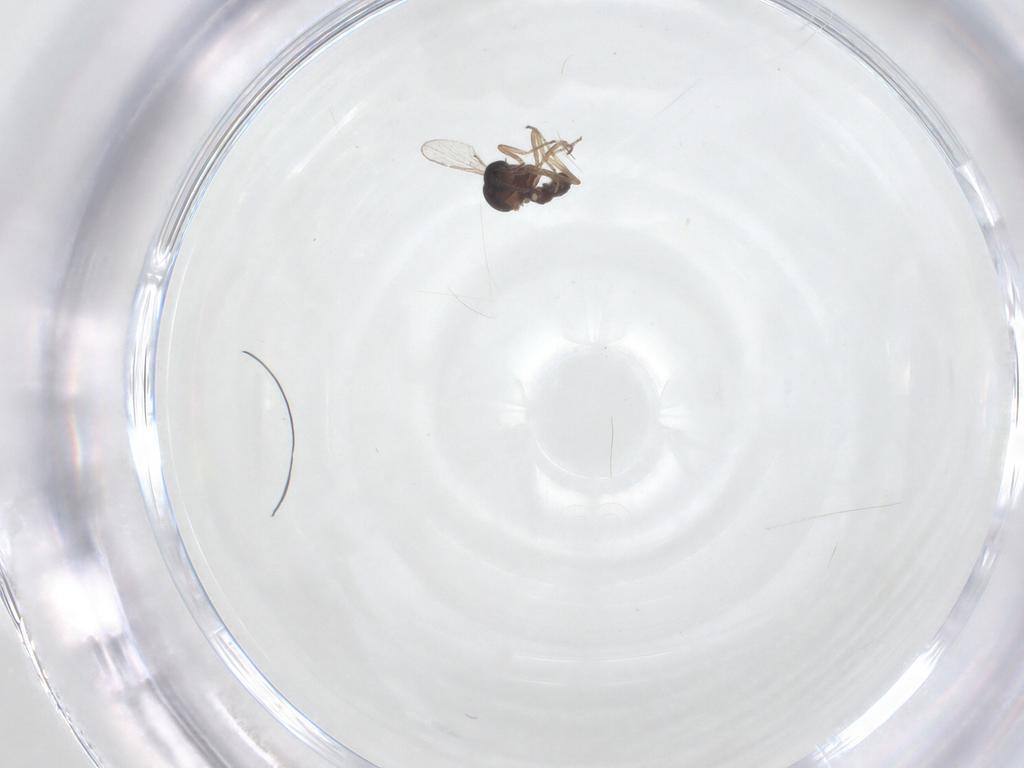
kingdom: Animalia
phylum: Arthropoda
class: Insecta
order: Diptera
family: Ceratopogonidae
